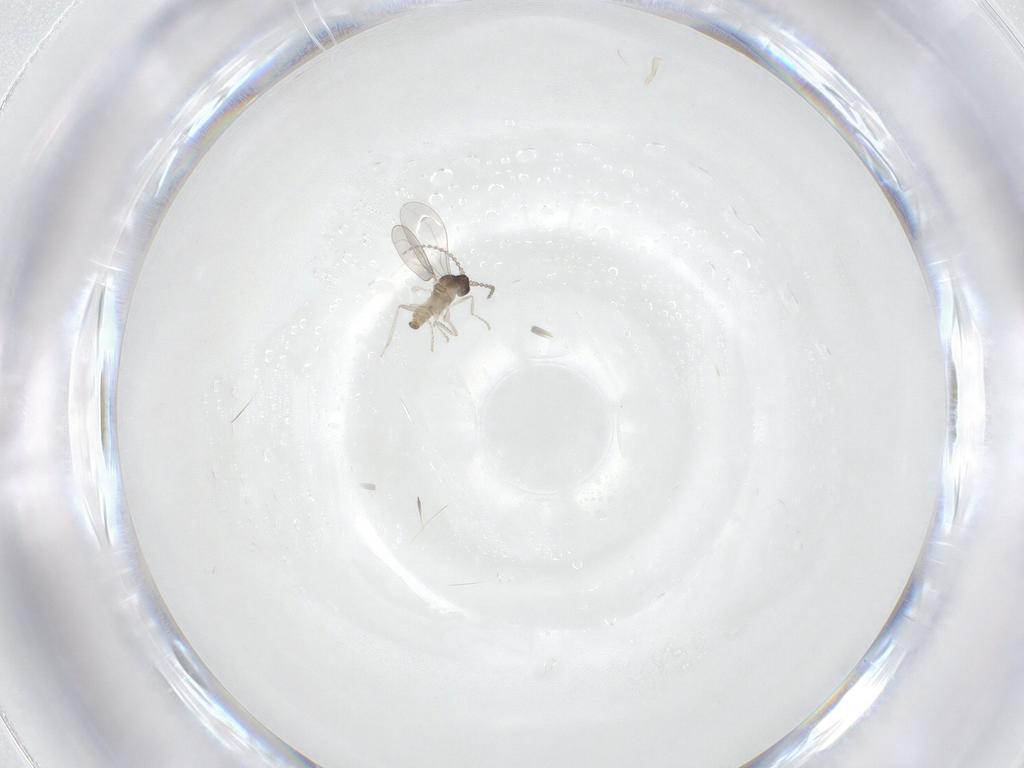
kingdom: Animalia
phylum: Arthropoda
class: Insecta
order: Diptera
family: Cecidomyiidae
